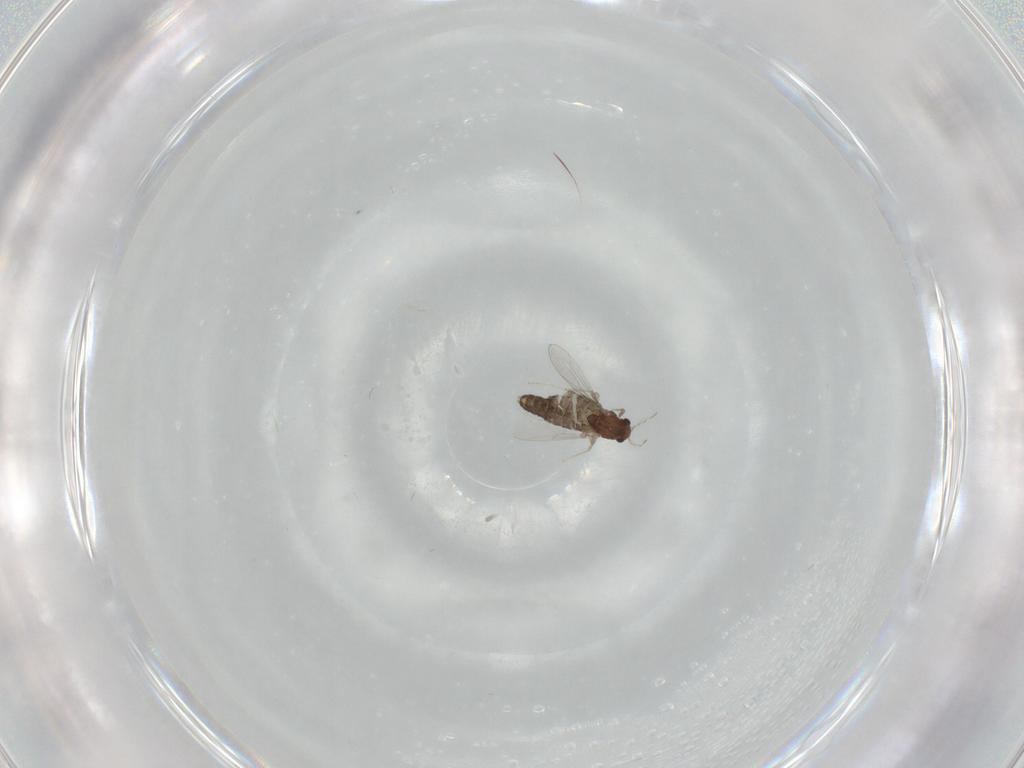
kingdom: Animalia
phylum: Arthropoda
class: Insecta
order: Diptera
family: Chironomidae
